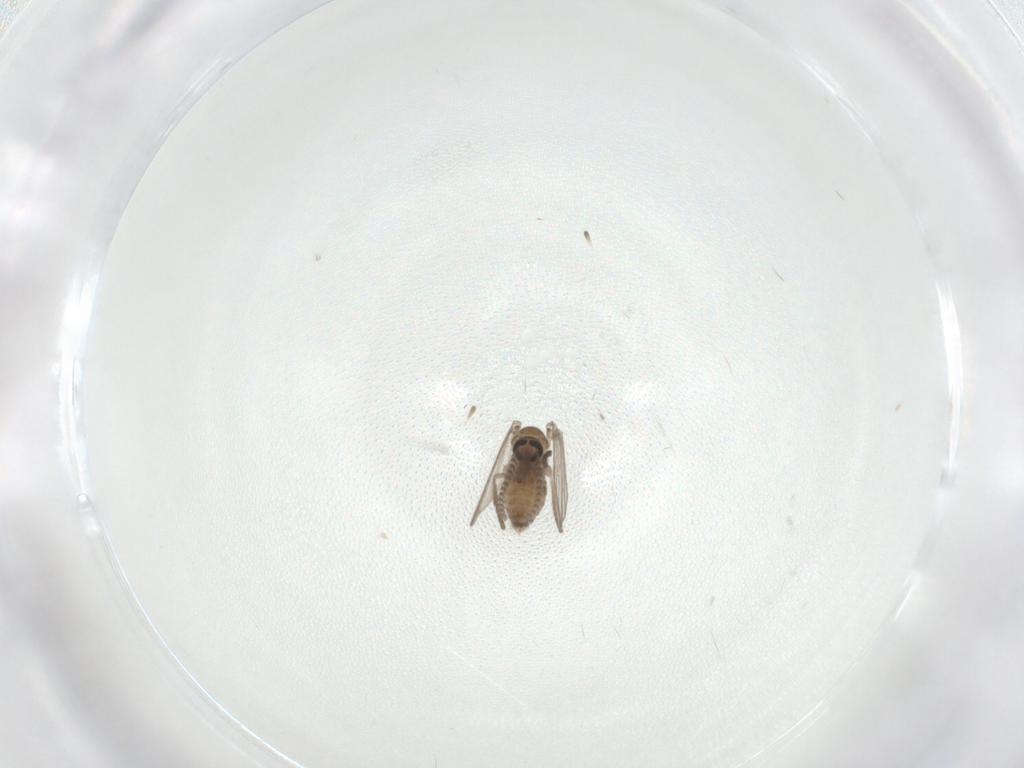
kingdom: Animalia
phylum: Arthropoda
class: Insecta
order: Diptera
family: Psychodidae
